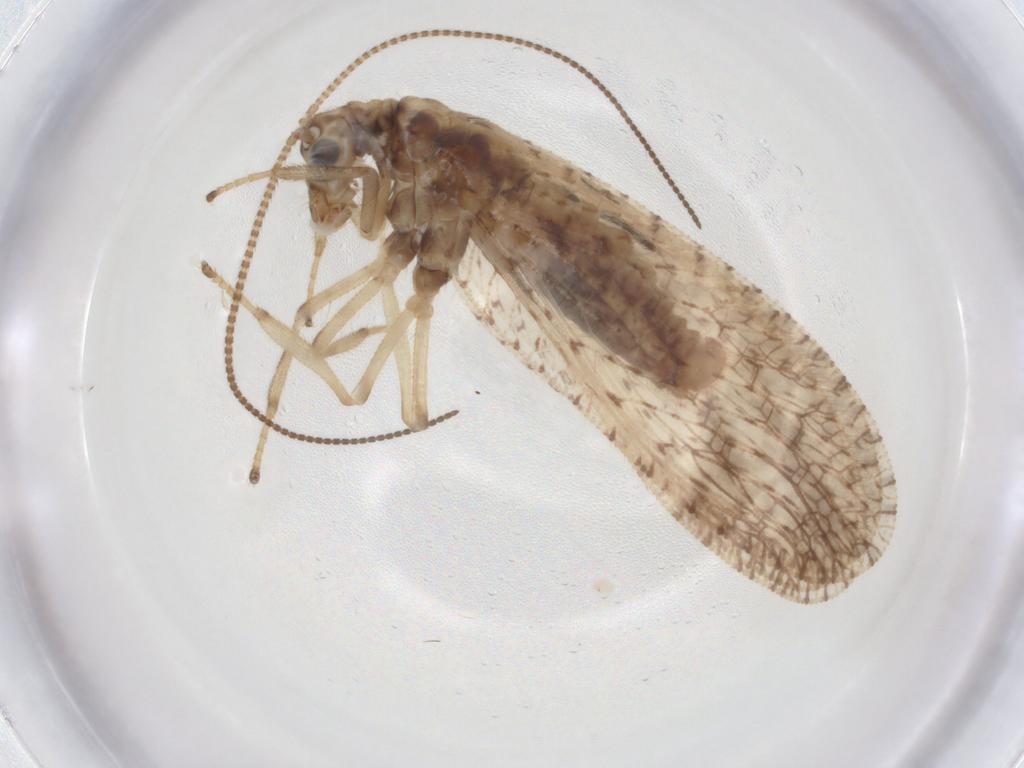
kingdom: Animalia
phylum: Arthropoda
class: Insecta
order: Neuroptera
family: Hemerobiidae
